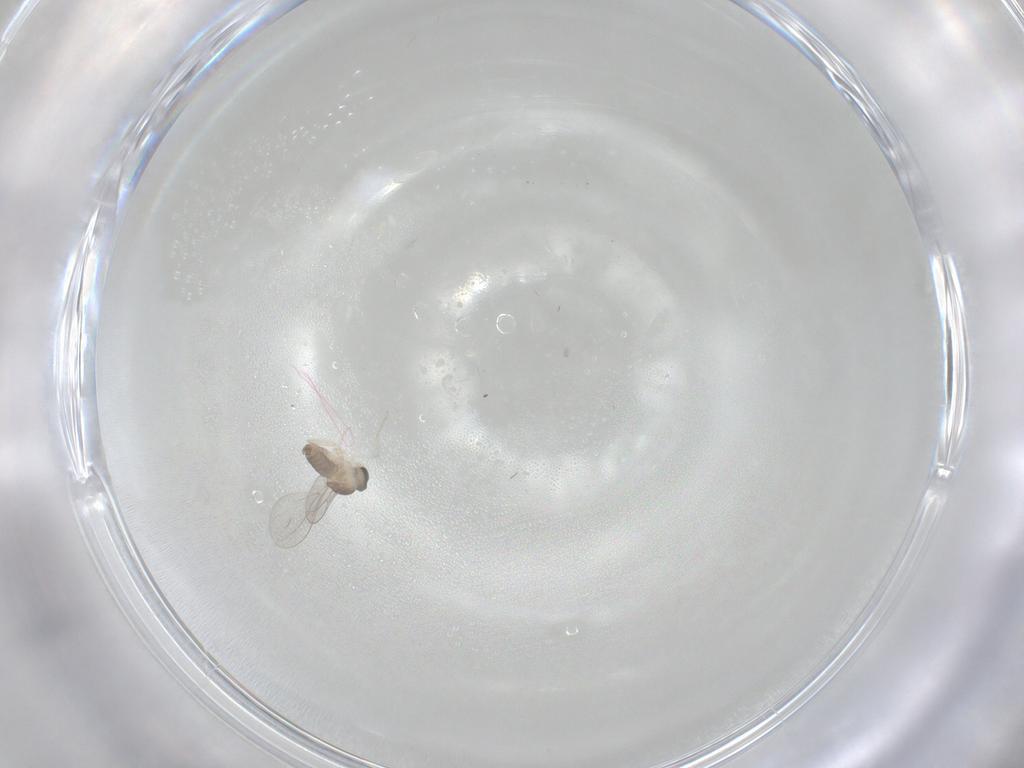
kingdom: Animalia
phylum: Arthropoda
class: Insecta
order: Diptera
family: Cecidomyiidae
